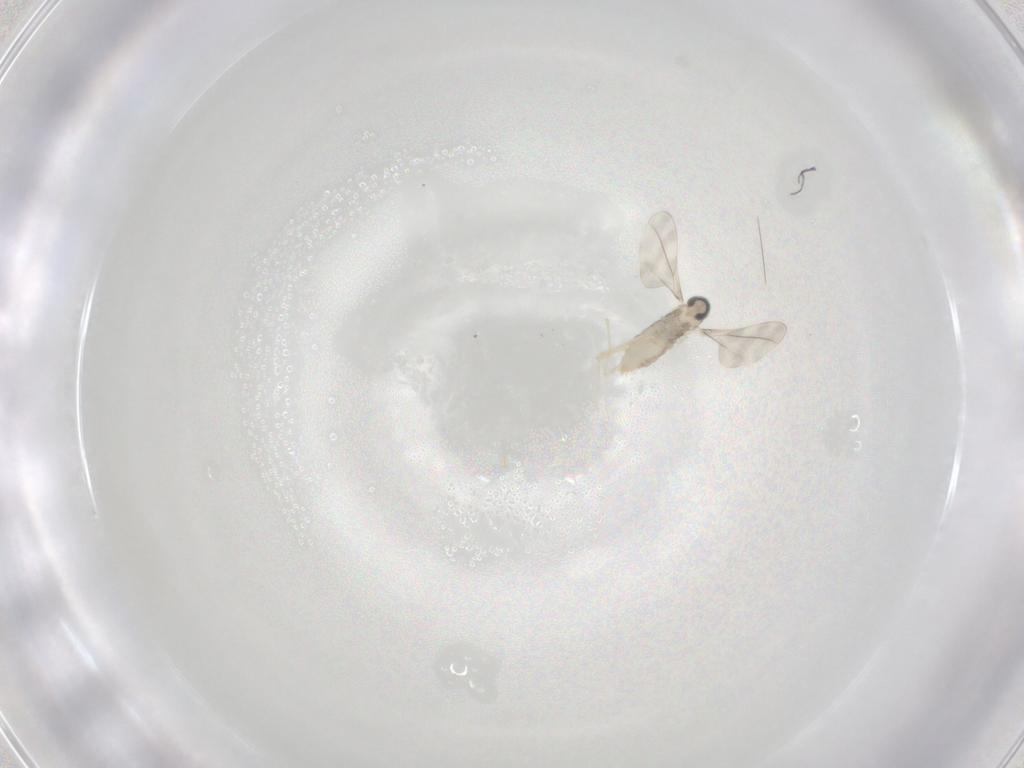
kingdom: Animalia
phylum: Arthropoda
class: Insecta
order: Diptera
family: Cecidomyiidae
